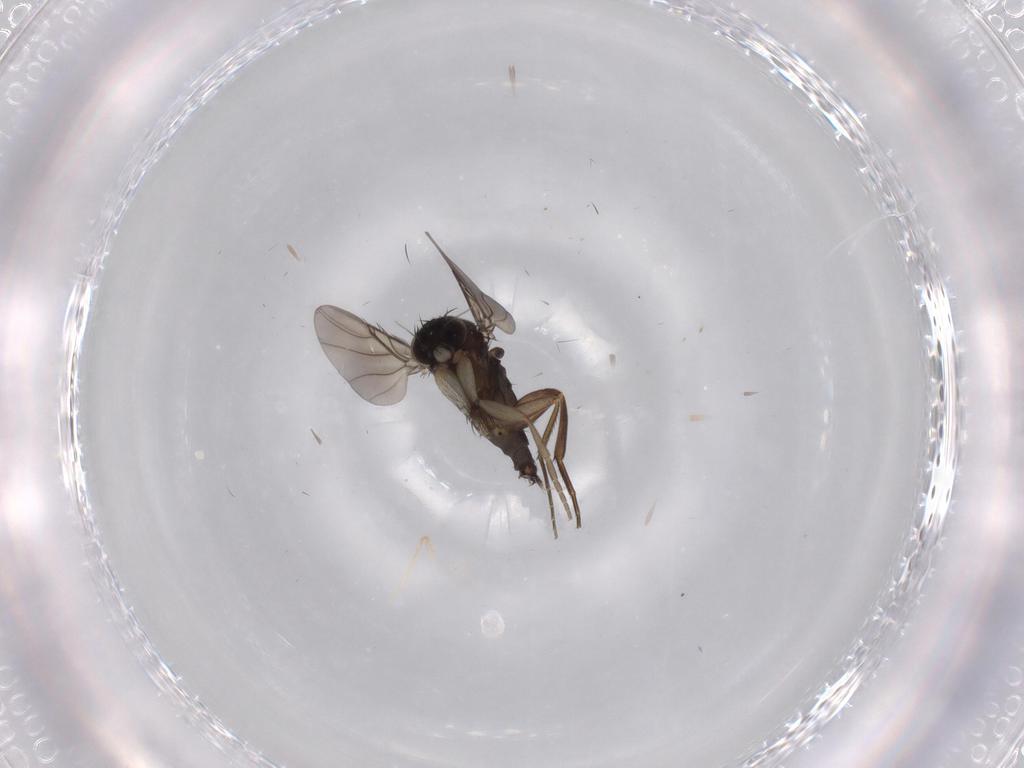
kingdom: Animalia
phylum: Arthropoda
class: Insecta
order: Diptera
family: Phoridae
